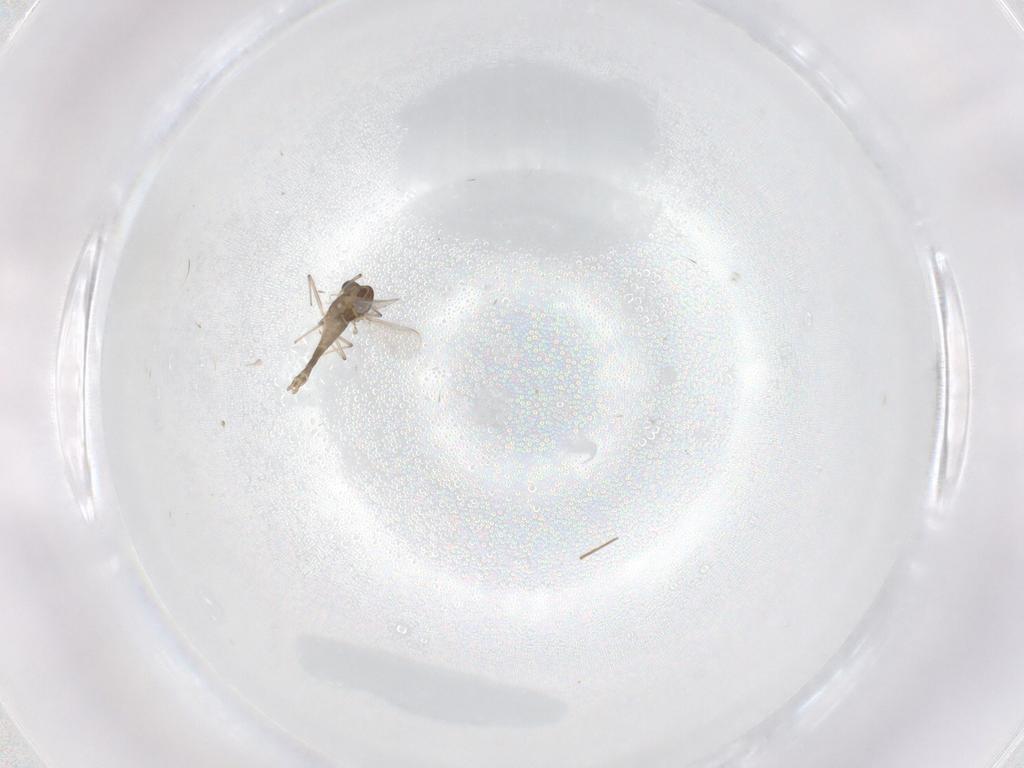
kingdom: Animalia
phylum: Arthropoda
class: Insecta
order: Diptera
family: Chironomidae
